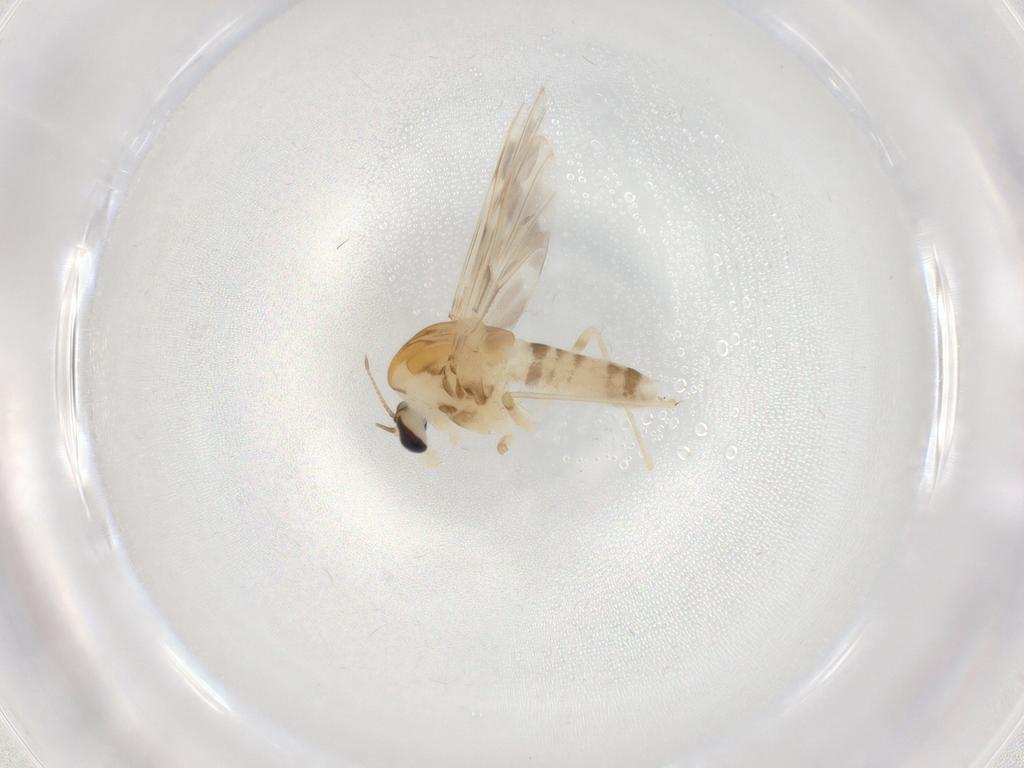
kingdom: Animalia
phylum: Arthropoda
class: Insecta
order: Diptera
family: Chironomidae
